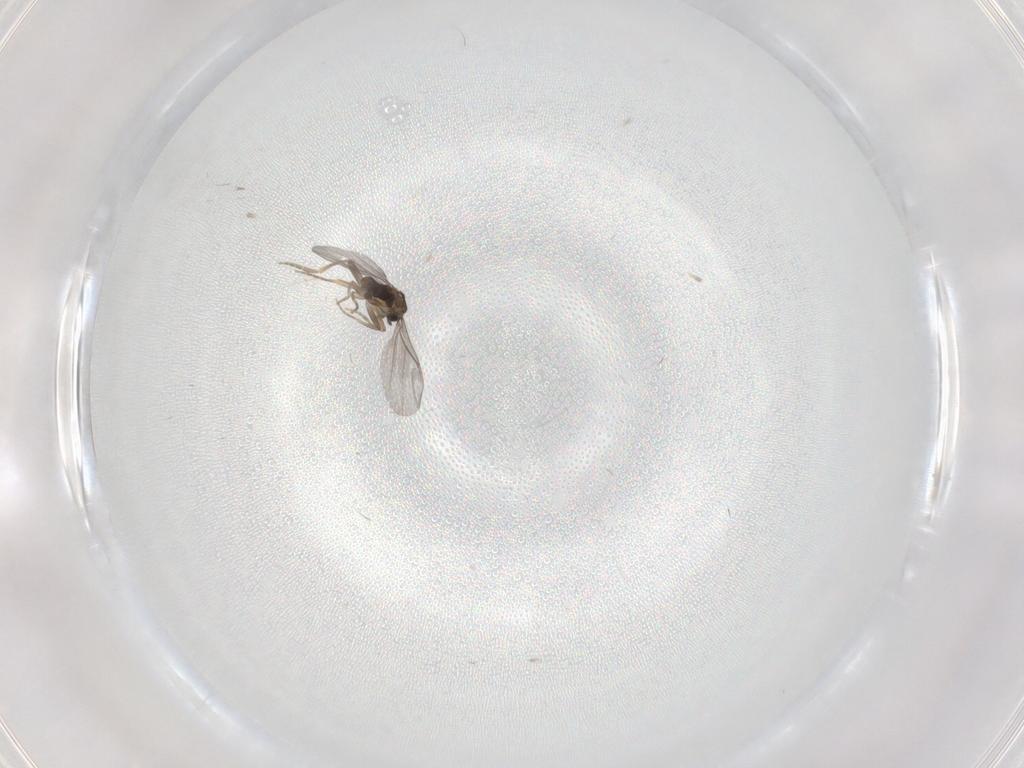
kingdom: Animalia
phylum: Arthropoda
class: Insecta
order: Diptera
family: Phoridae
